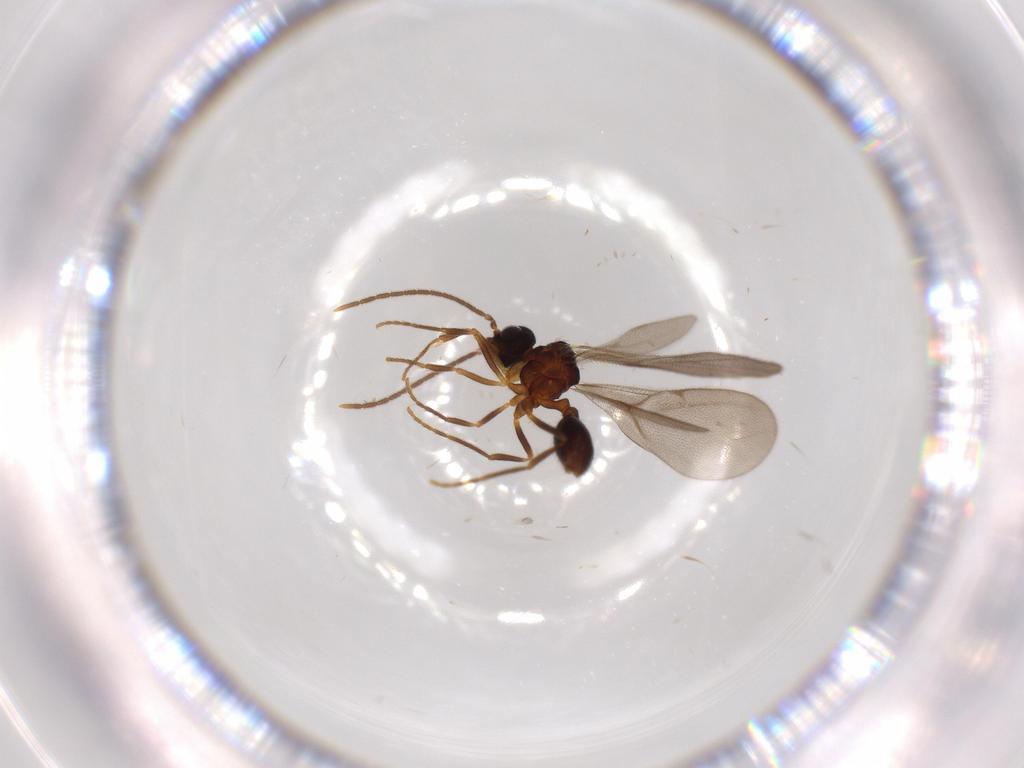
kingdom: Animalia
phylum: Arthropoda
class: Insecta
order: Hymenoptera
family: Formicidae
